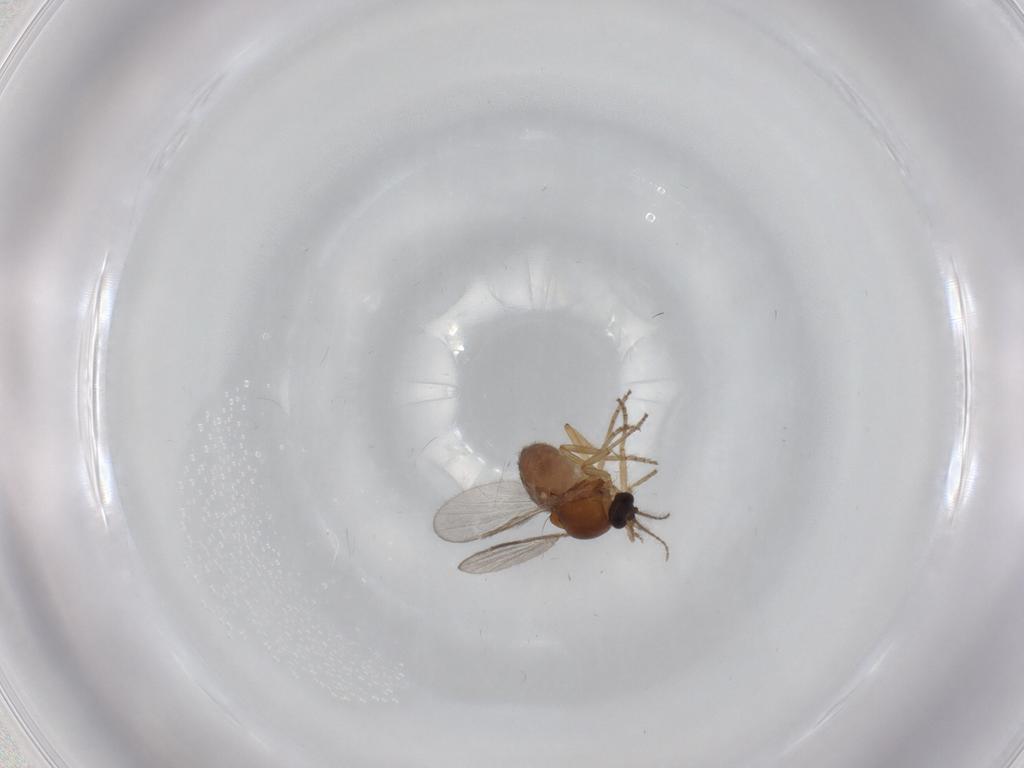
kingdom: Animalia
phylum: Arthropoda
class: Insecta
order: Diptera
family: Ceratopogonidae
